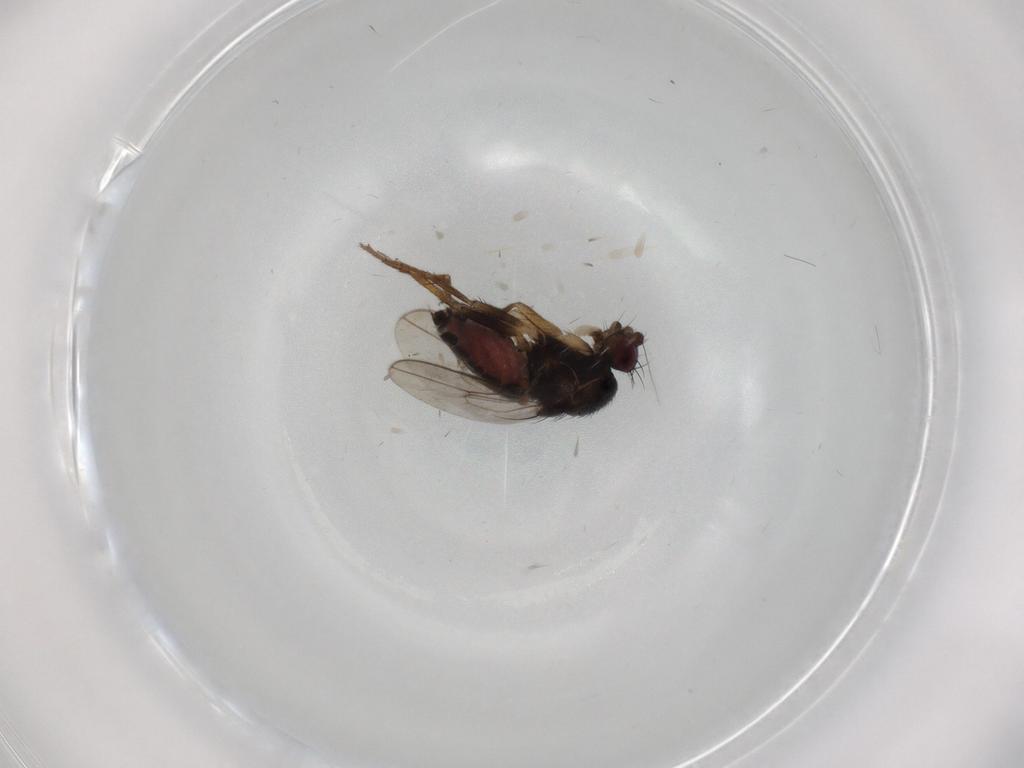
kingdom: Animalia
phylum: Arthropoda
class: Insecta
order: Diptera
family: Sphaeroceridae
